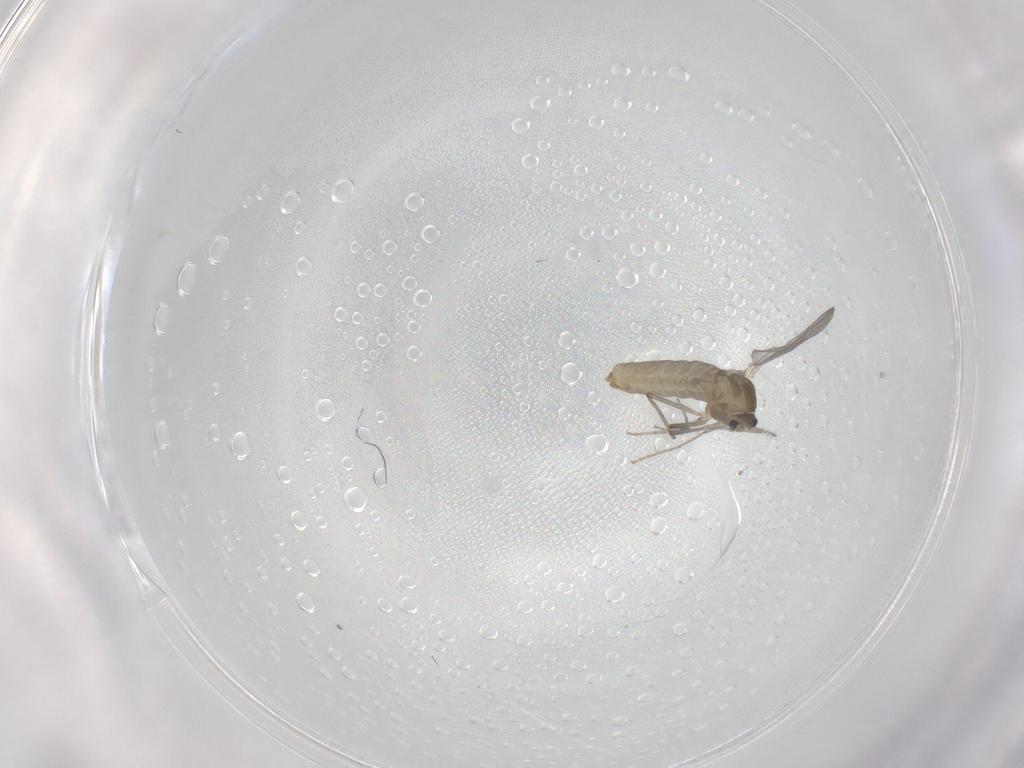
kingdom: Animalia
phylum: Arthropoda
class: Insecta
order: Diptera
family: Chironomidae
